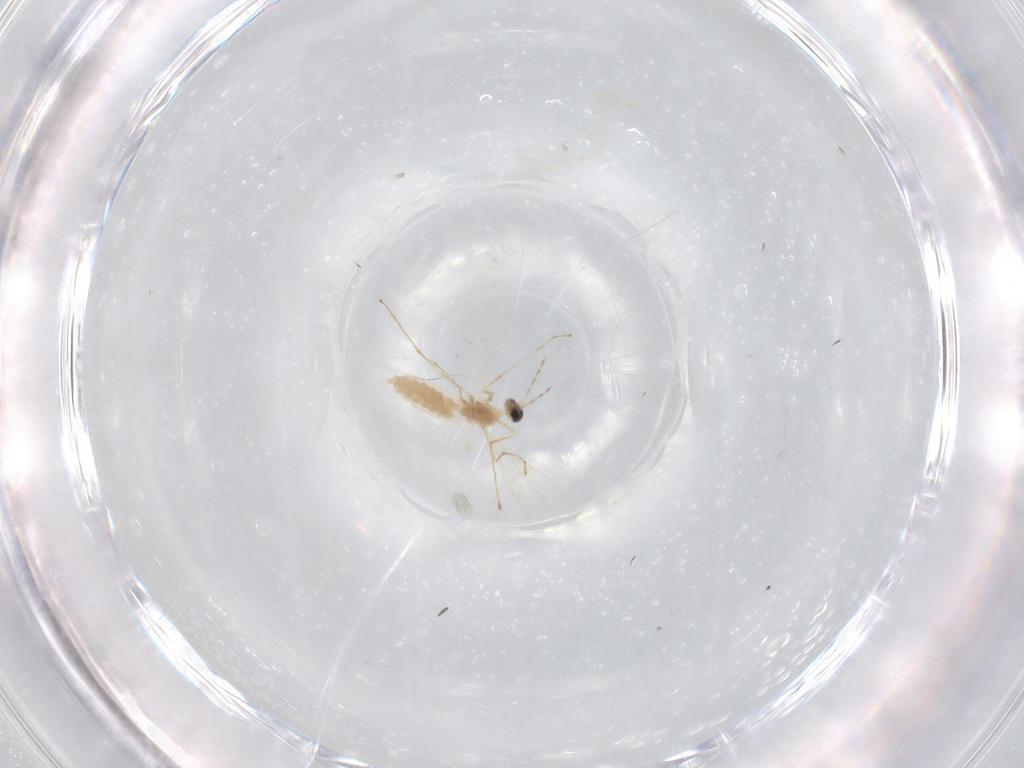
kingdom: Animalia
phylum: Arthropoda
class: Insecta
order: Diptera
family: Cecidomyiidae
